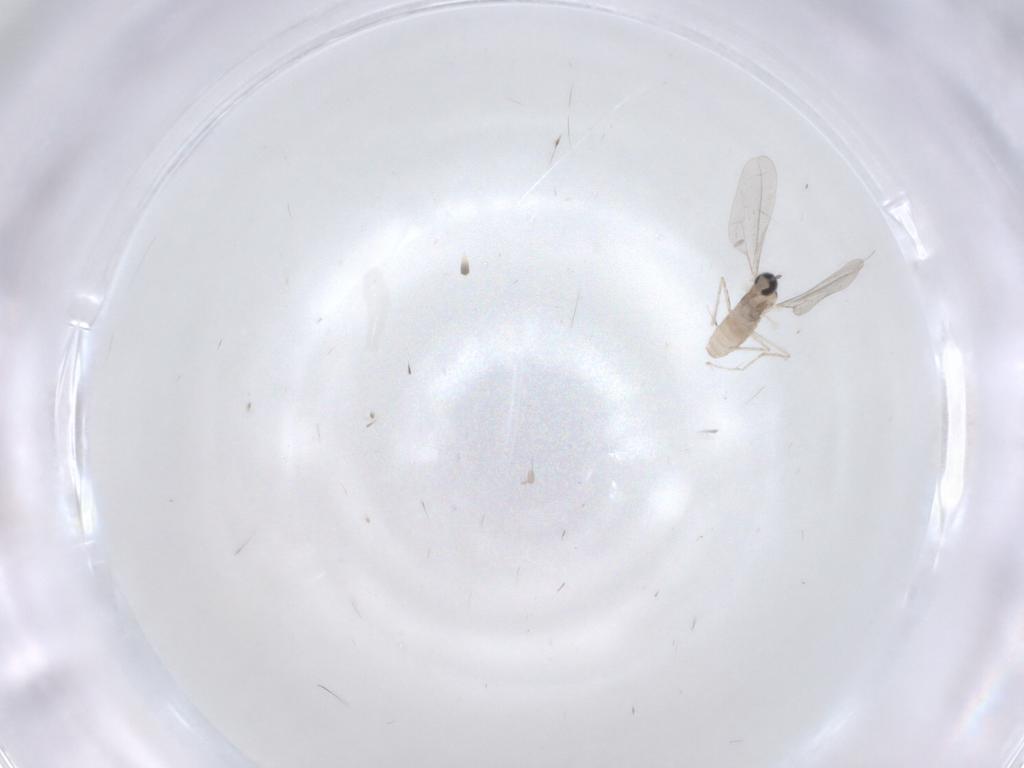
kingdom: Animalia
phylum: Arthropoda
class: Insecta
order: Diptera
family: Cecidomyiidae
